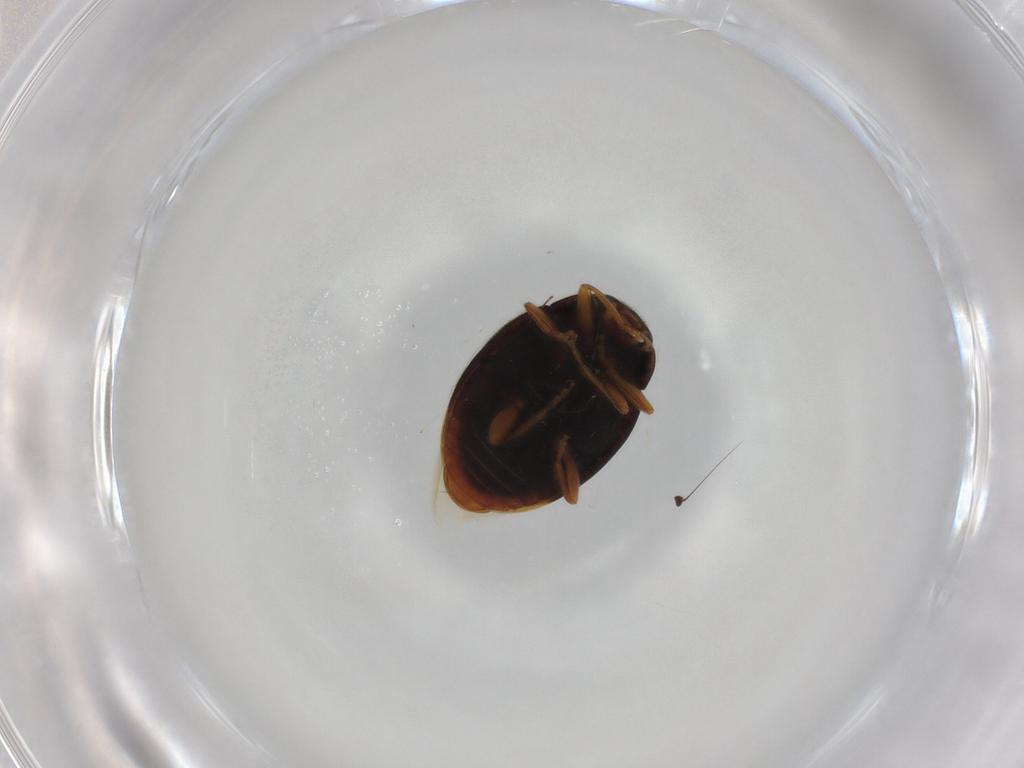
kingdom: Animalia
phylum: Arthropoda
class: Insecta
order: Coleoptera
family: Coccinellidae
